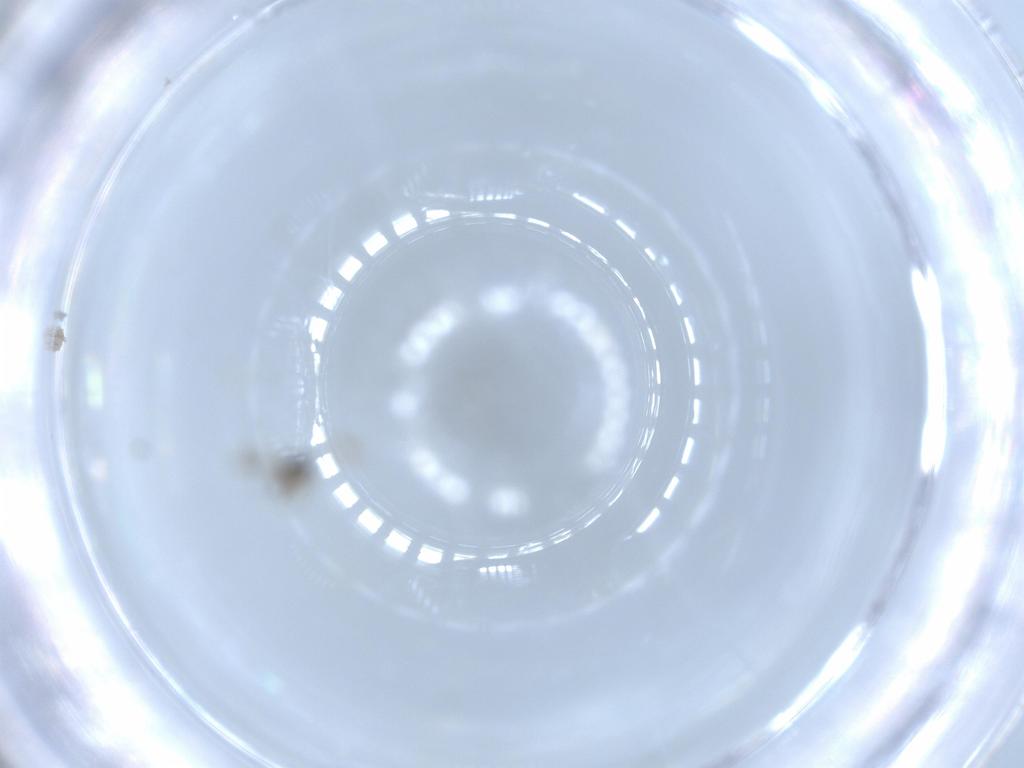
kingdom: Animalia
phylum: Arthropoda
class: Insecta
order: Hymenoptera
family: Platygastridae
